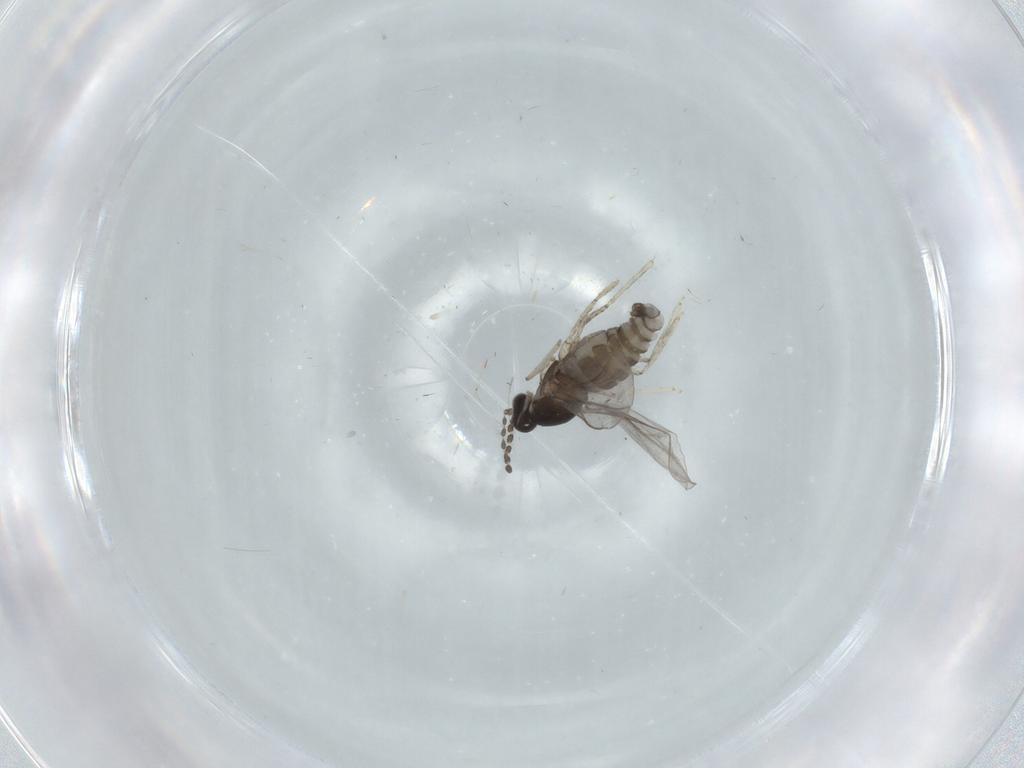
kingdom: Animalia
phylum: Arthropoda
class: Insecta
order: Diptera
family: Cecidomyiidae
